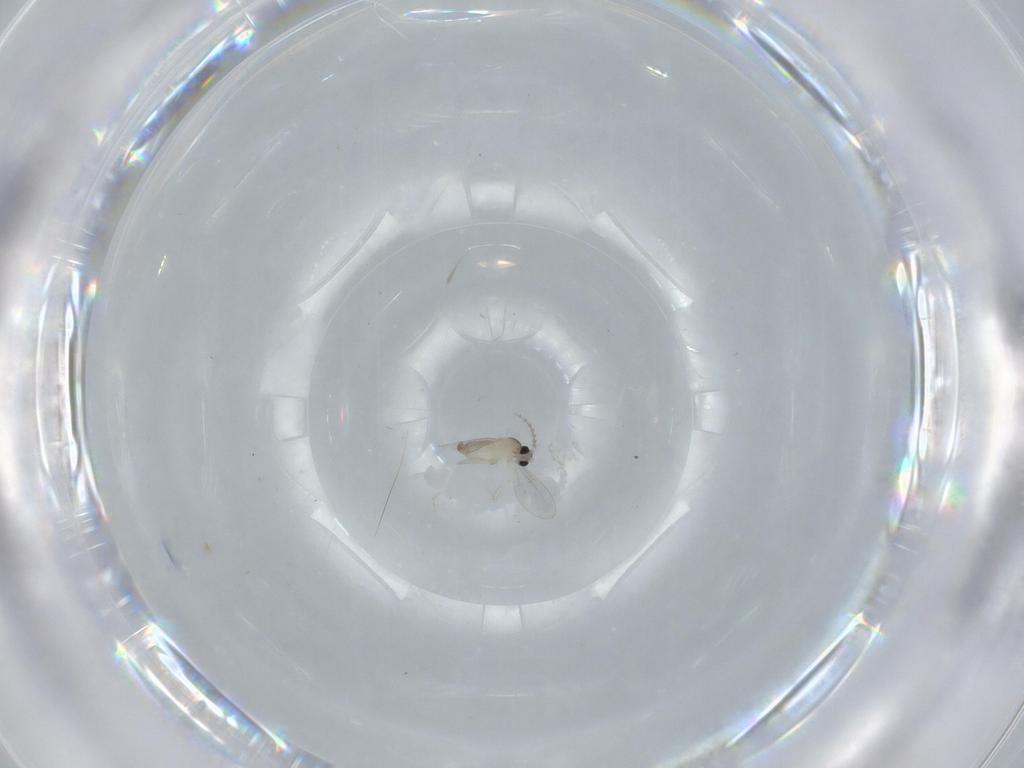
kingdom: Animalia
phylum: Arthropoda
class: Insecta
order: Diptera
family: Cecidomyiidae
